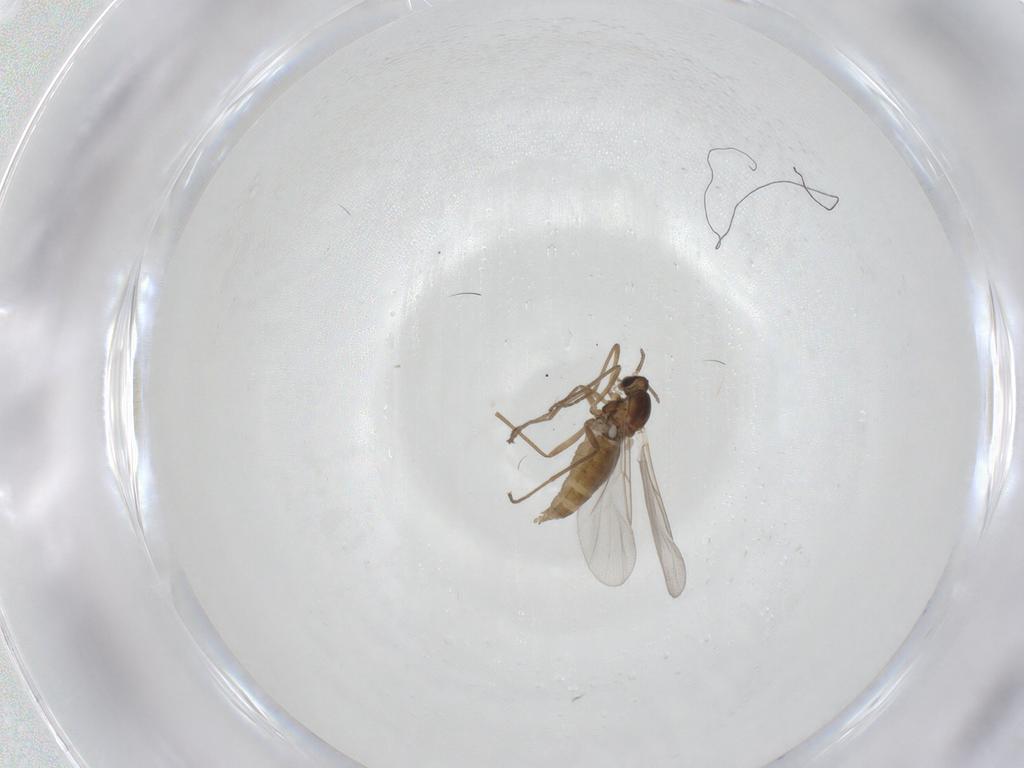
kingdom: Animalia
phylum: Arthropoda
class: Insecta
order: Diptera
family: Cecidomyiidae
